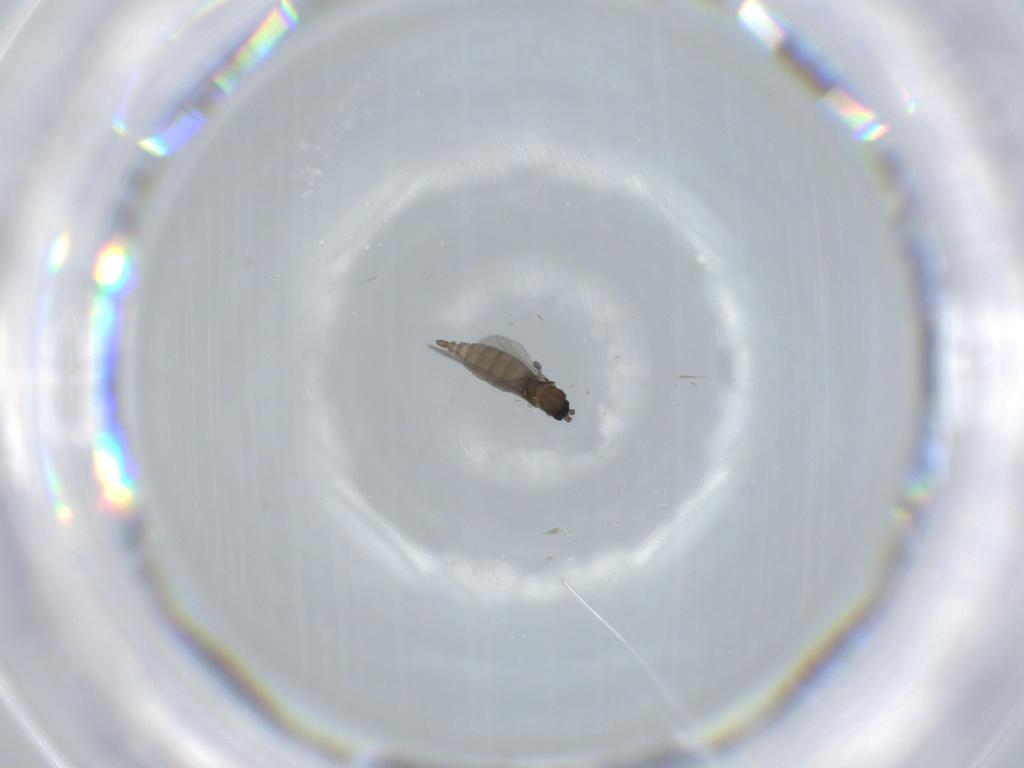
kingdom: Animalia
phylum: Arthropoda
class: Insecta
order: Diptera
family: Sciaridae
